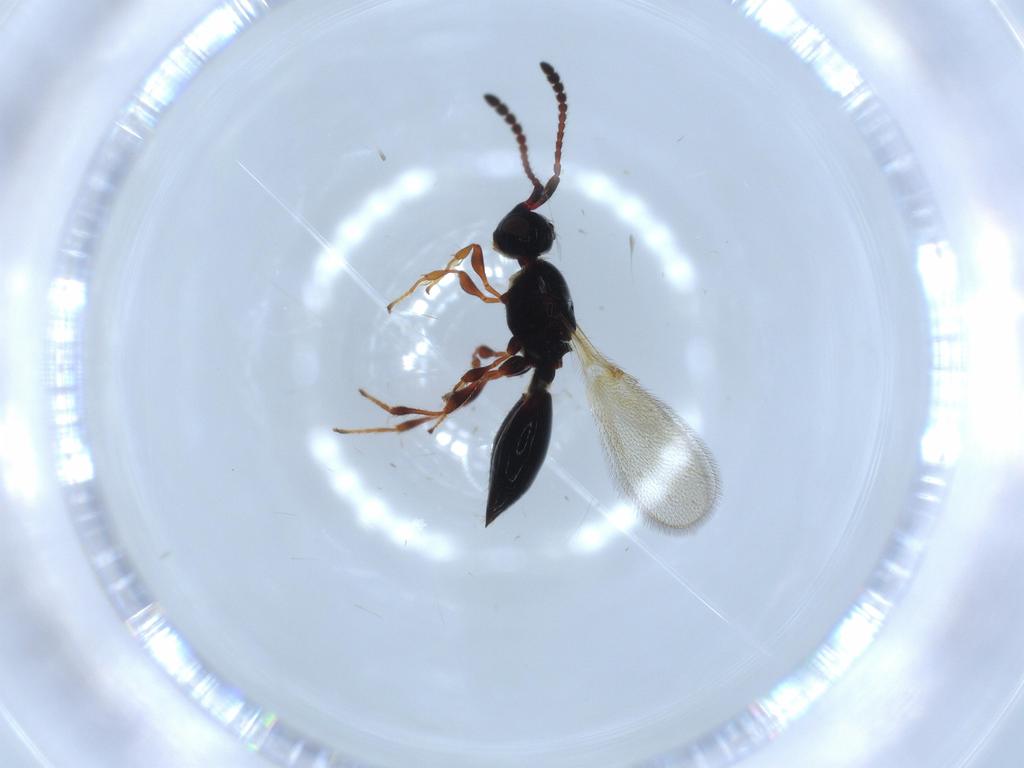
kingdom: Animalia
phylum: Arthropoda
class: Insecta
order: Hymenoptera
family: Diapriidae
